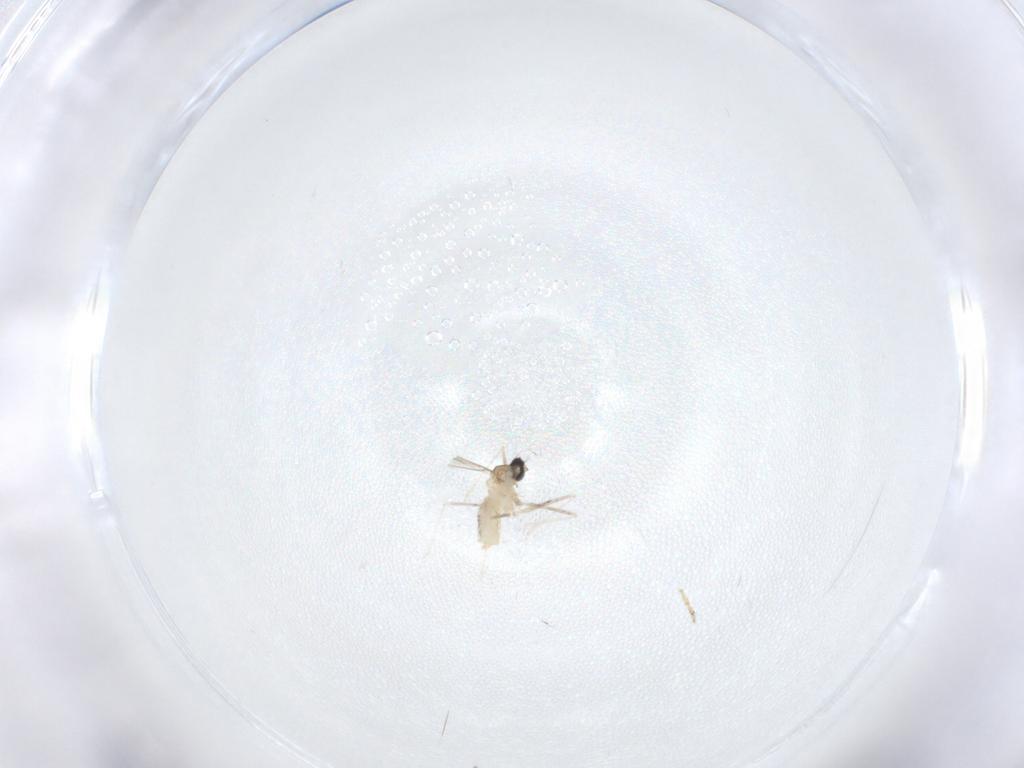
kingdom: Animalia
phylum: Arthropoda
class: Insecta
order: Diptera
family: Cecidomyiidae
